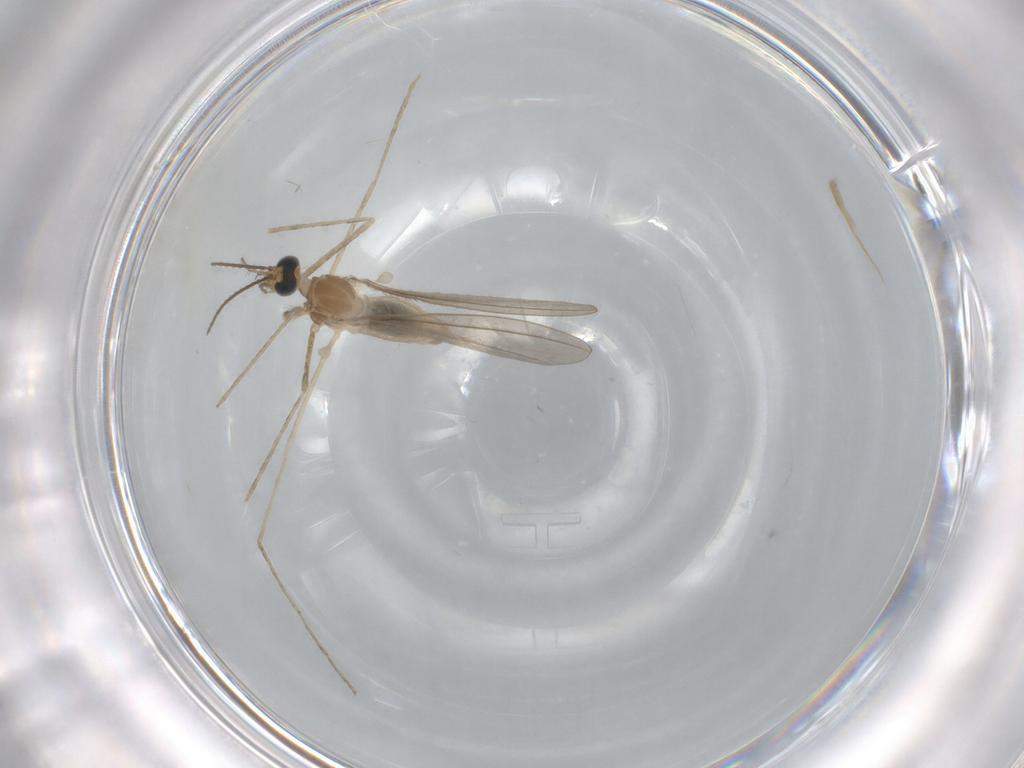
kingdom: Animalia
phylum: Arthropoda
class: Insecta
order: Diptera
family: Cecidomyiidae
